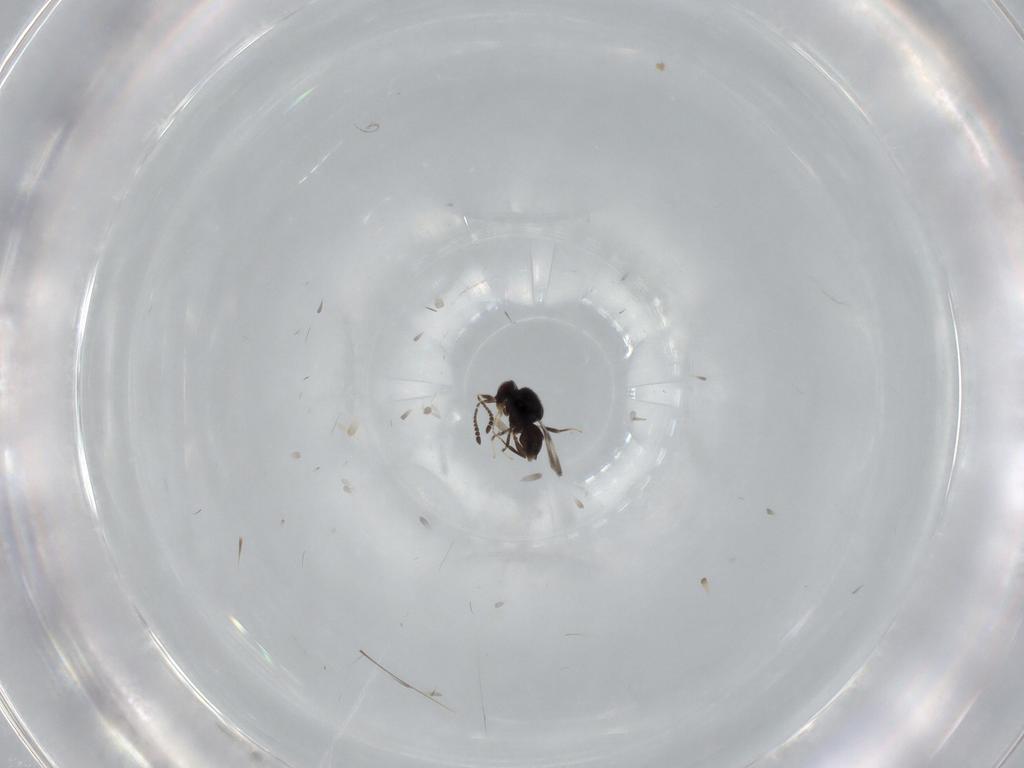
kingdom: Animalia
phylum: Arthropoda
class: Insecta
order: Hymenoptera
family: Ceraphronidae
